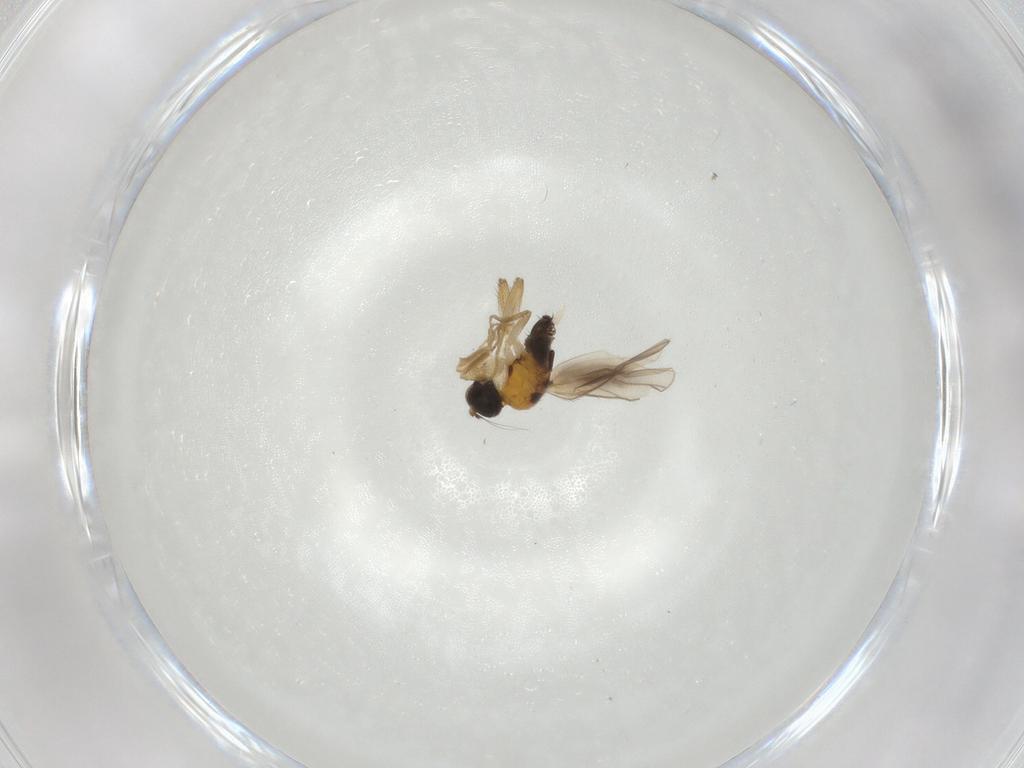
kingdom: Animalia
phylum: Arthropoda
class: Insecta
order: Diptera
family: Hybotidae
